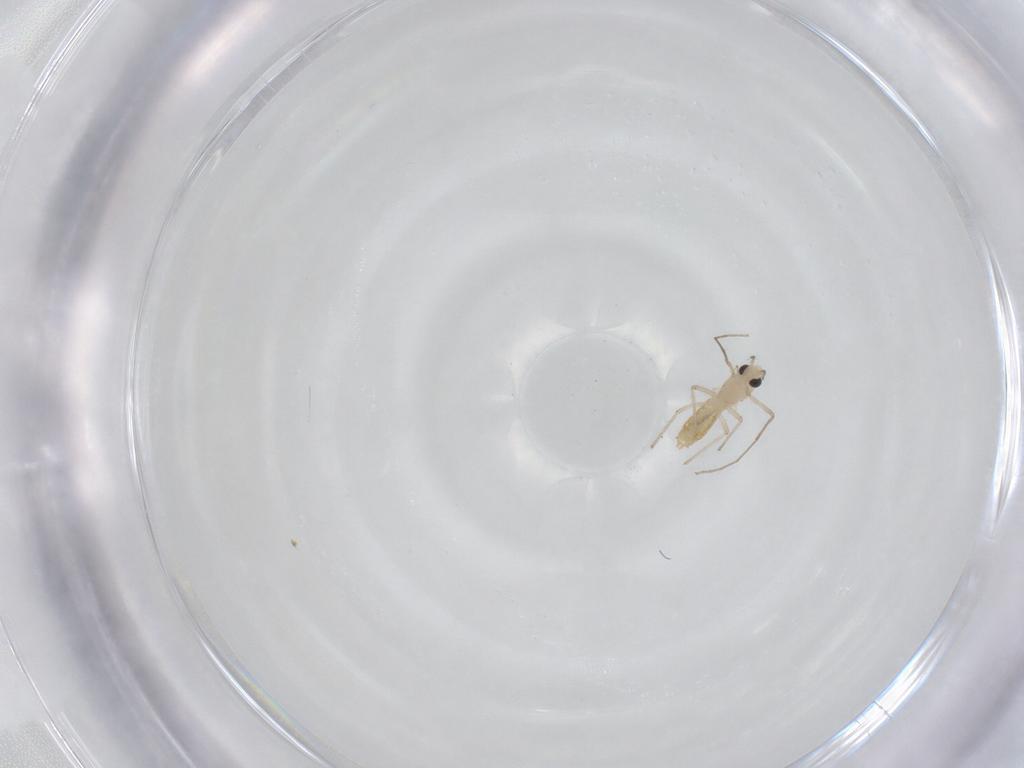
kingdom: Animalia
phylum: Arthropoda
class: Insecta
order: Diptera
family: Chironomidae
